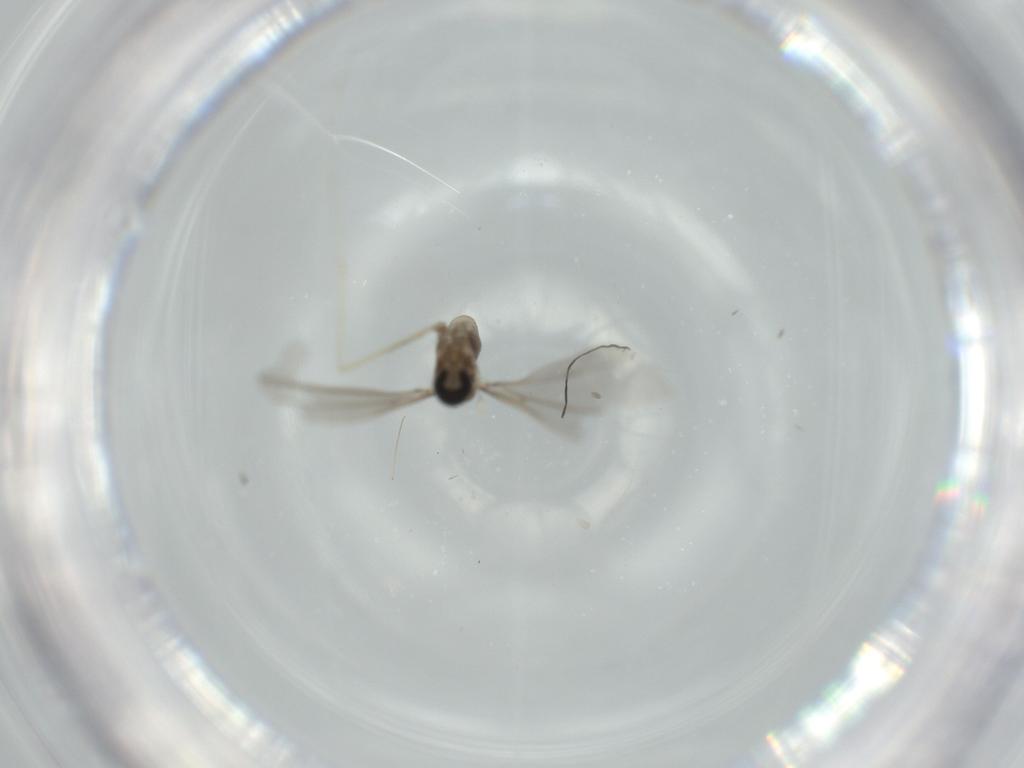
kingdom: Animalia
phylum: Arthropoda
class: Insecta
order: Diptera
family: Cecidomyiidae
